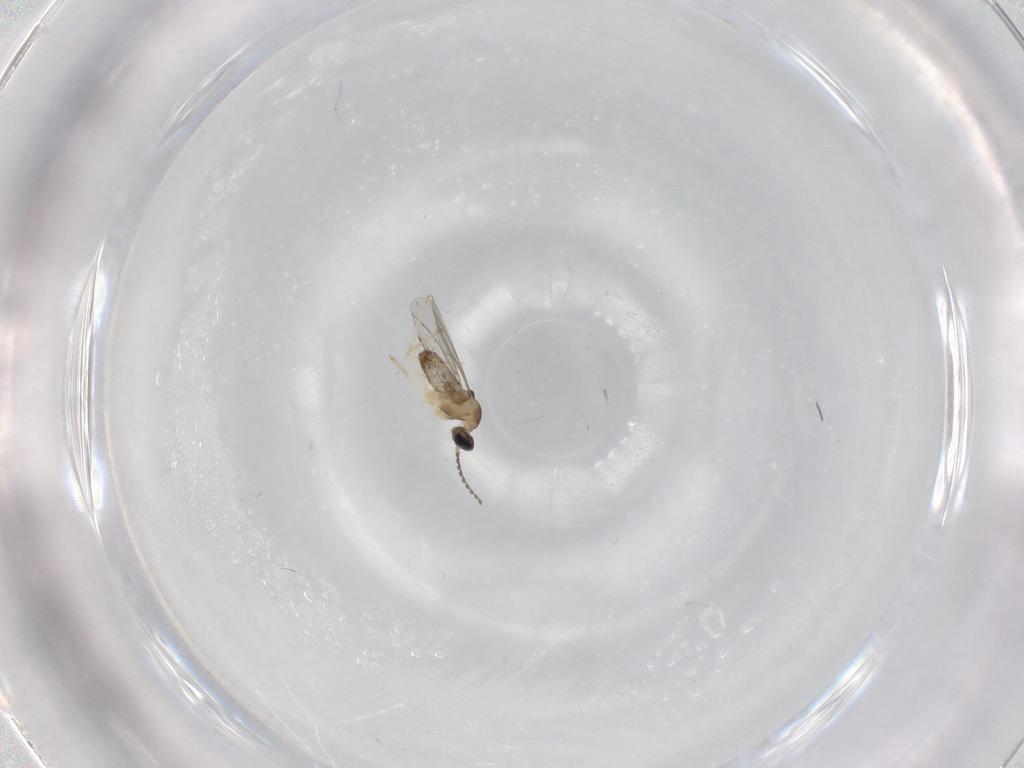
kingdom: Animalia
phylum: Arthropoda
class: Insecta
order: Diptera
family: Cecidomyiidae
